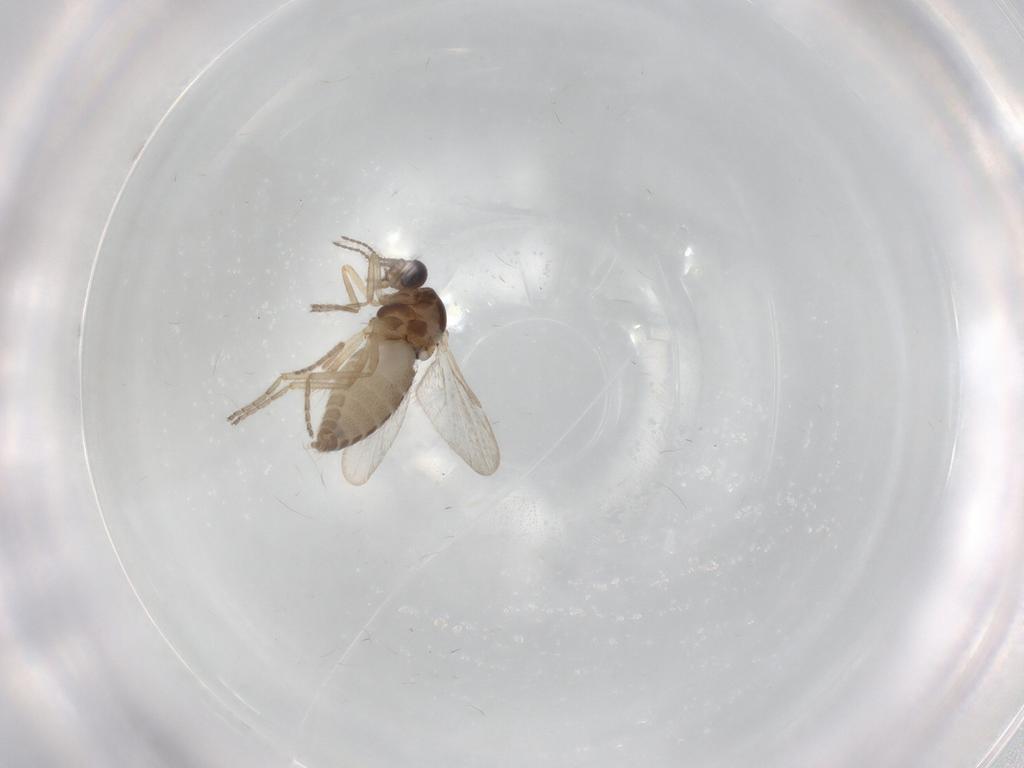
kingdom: Animalia
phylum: Arthropoda
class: Insecta
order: Diptera
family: Ceratopogonidae
